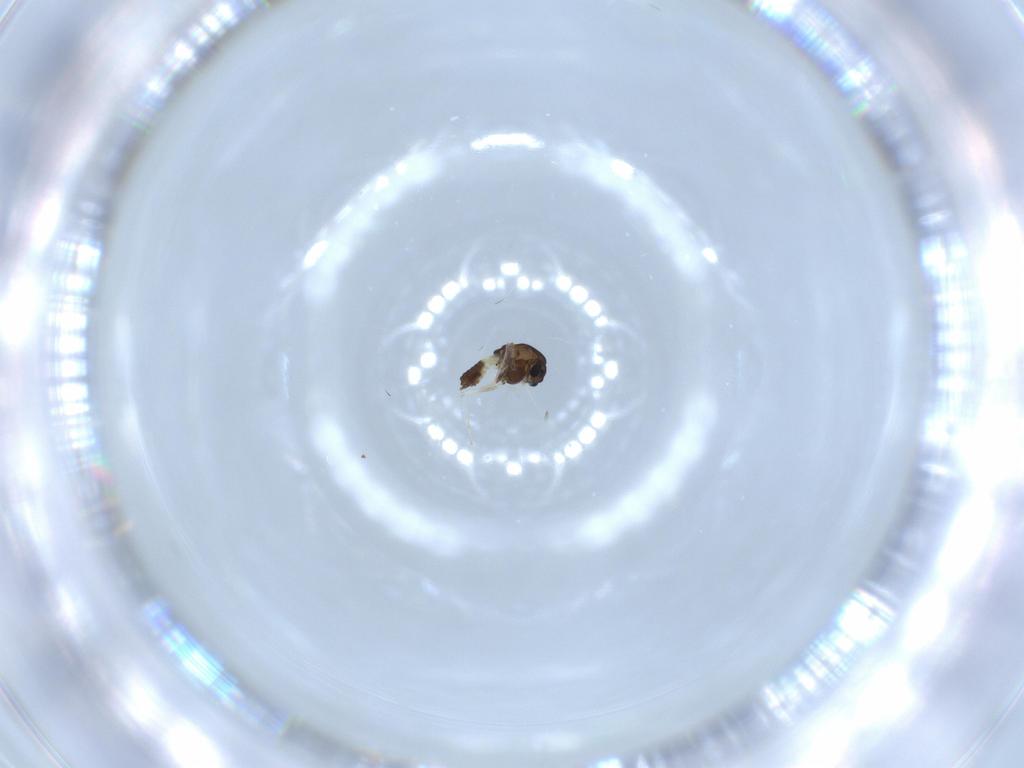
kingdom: Animalia
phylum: Arthropoda
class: Insecta
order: Diptera
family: Chironomidae
